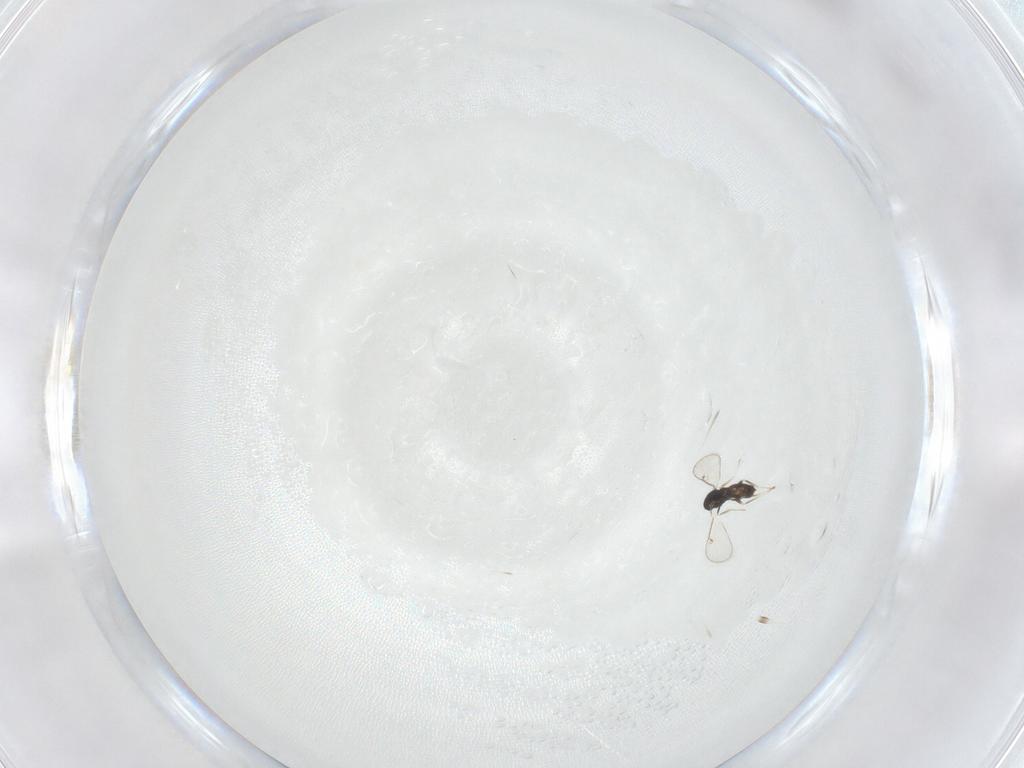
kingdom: Animalia
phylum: Arthropoda
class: Insecta
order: Hymenoptera
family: Eulophidae
